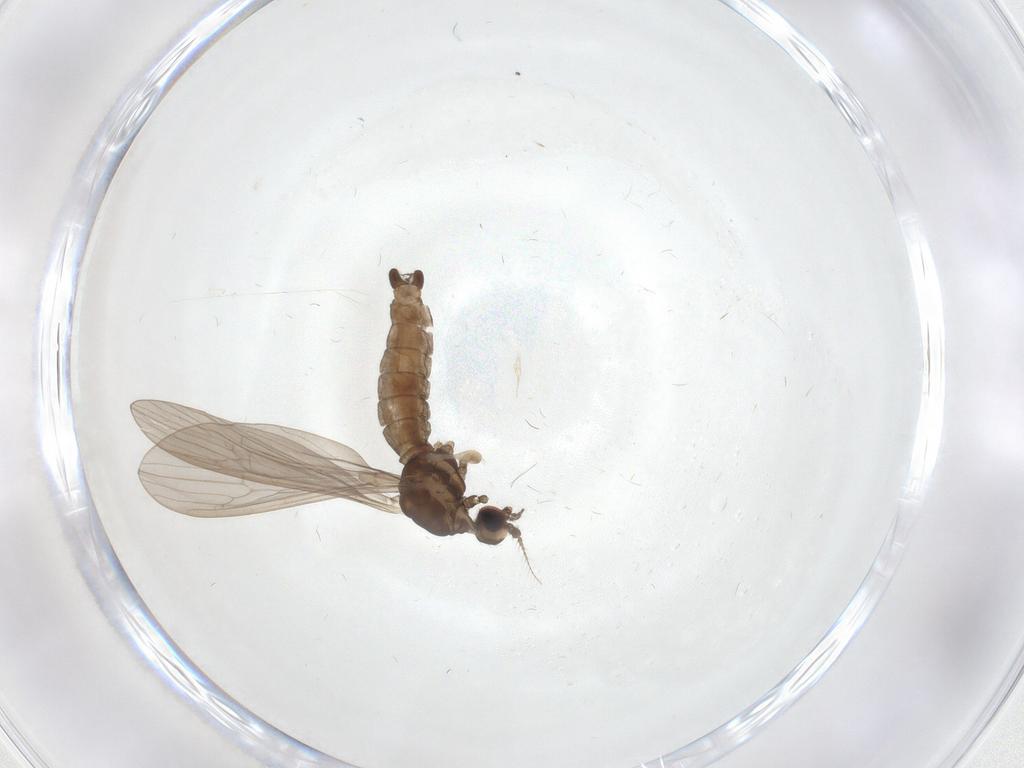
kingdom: Animalia
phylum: Arthropoda
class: Insecta
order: Diptera
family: Limoniidae
